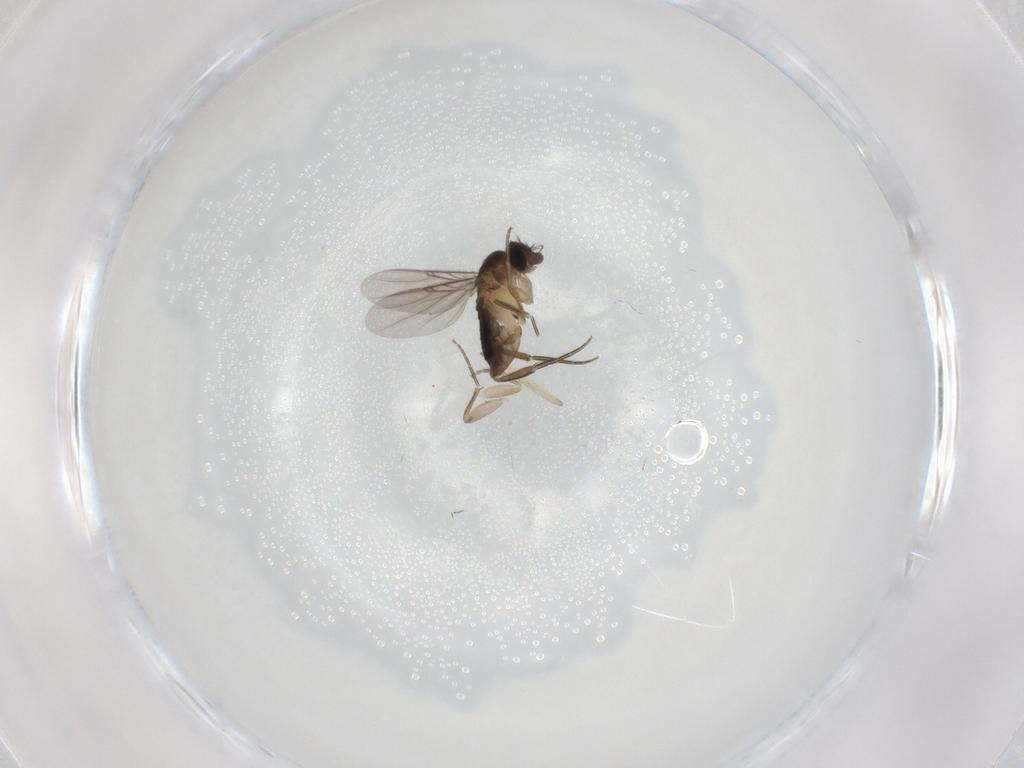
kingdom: Animalia
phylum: Arthropoda
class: Insecta
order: Diptera
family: Phoridae
